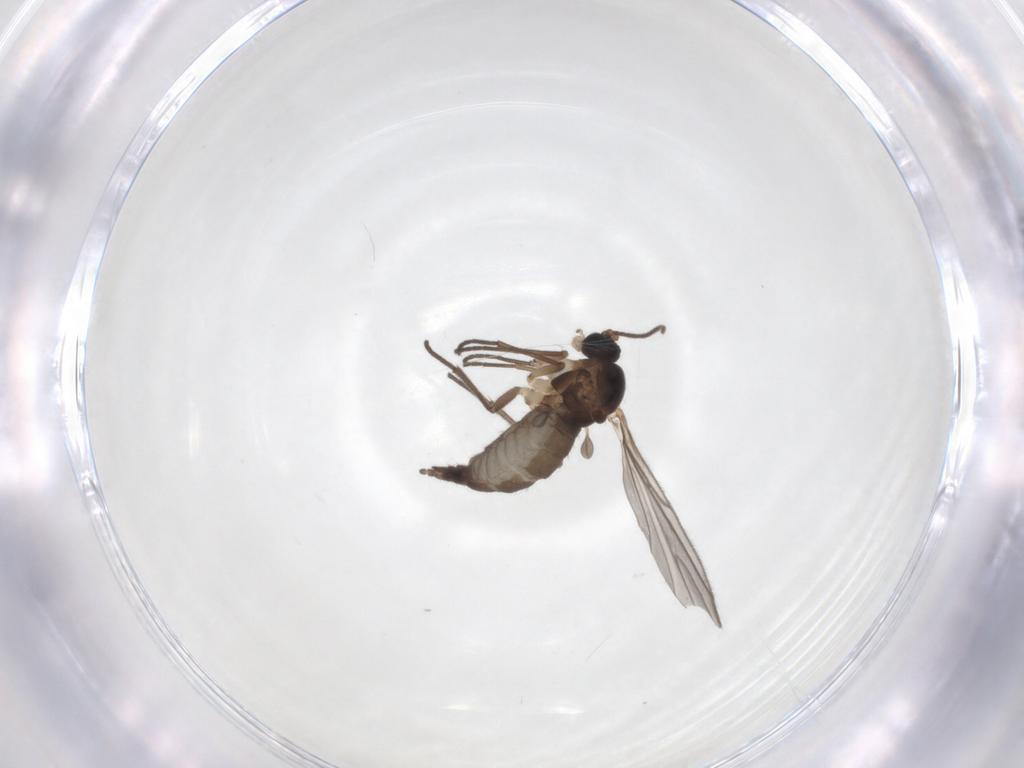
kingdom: Animalia
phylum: Arthropoda
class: Insecta
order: Diptera
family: Sciaridae
